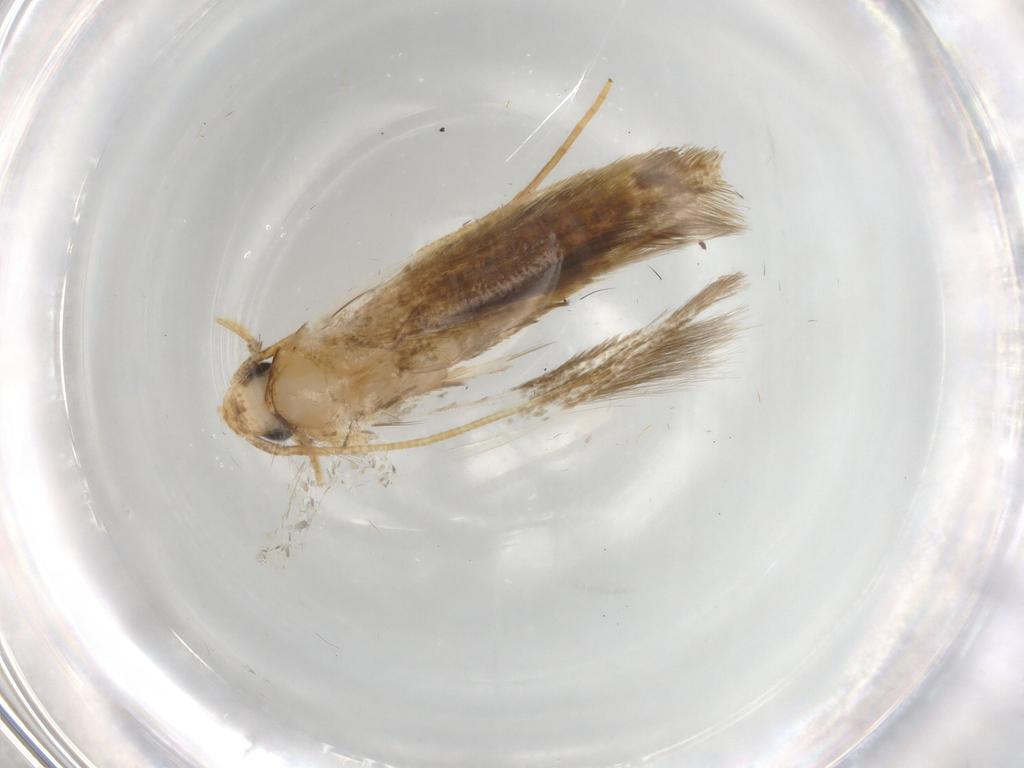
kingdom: Animalia
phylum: Arthropoda
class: Insecta
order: Lepidoptera
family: Tineidae
